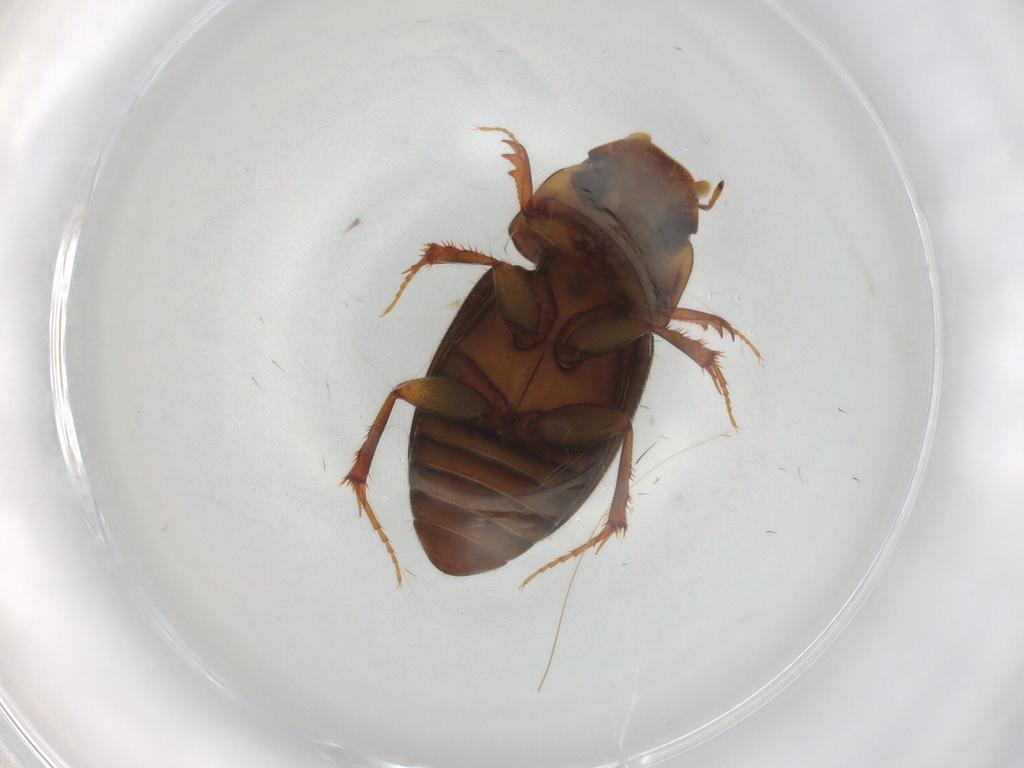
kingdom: Animalia
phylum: Arthropoda
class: Insecta
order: Coleoptera
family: Scarabaeidae
